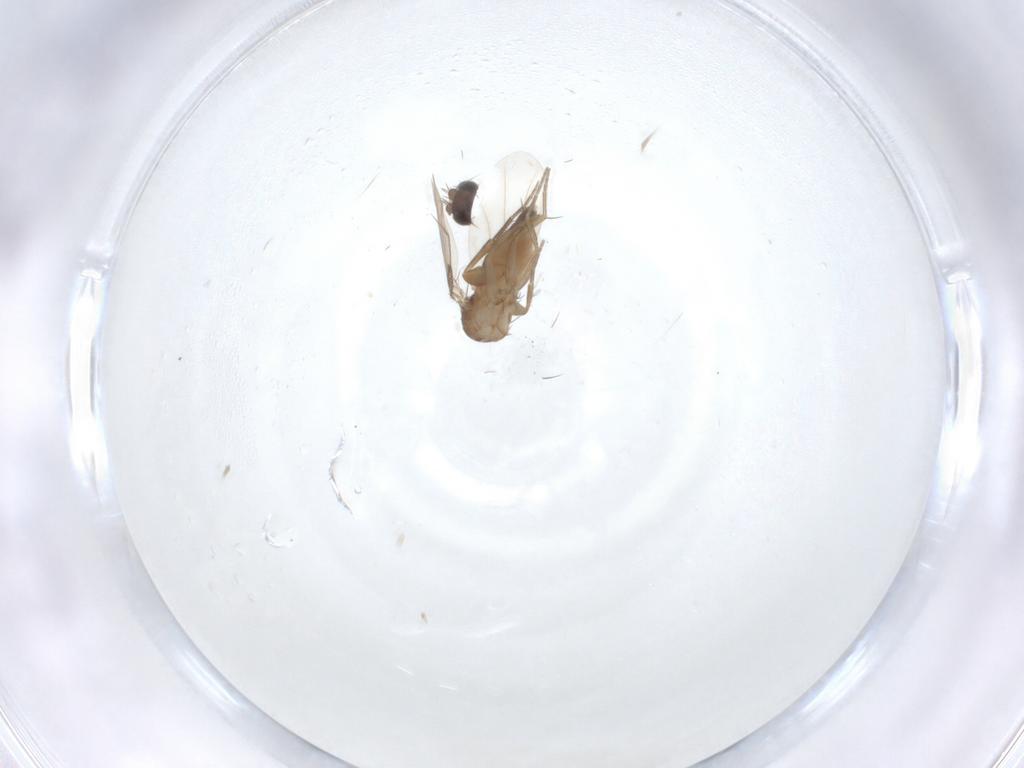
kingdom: Animalia
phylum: Arthropoda
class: Insecta
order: Diptera
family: Phoridae
